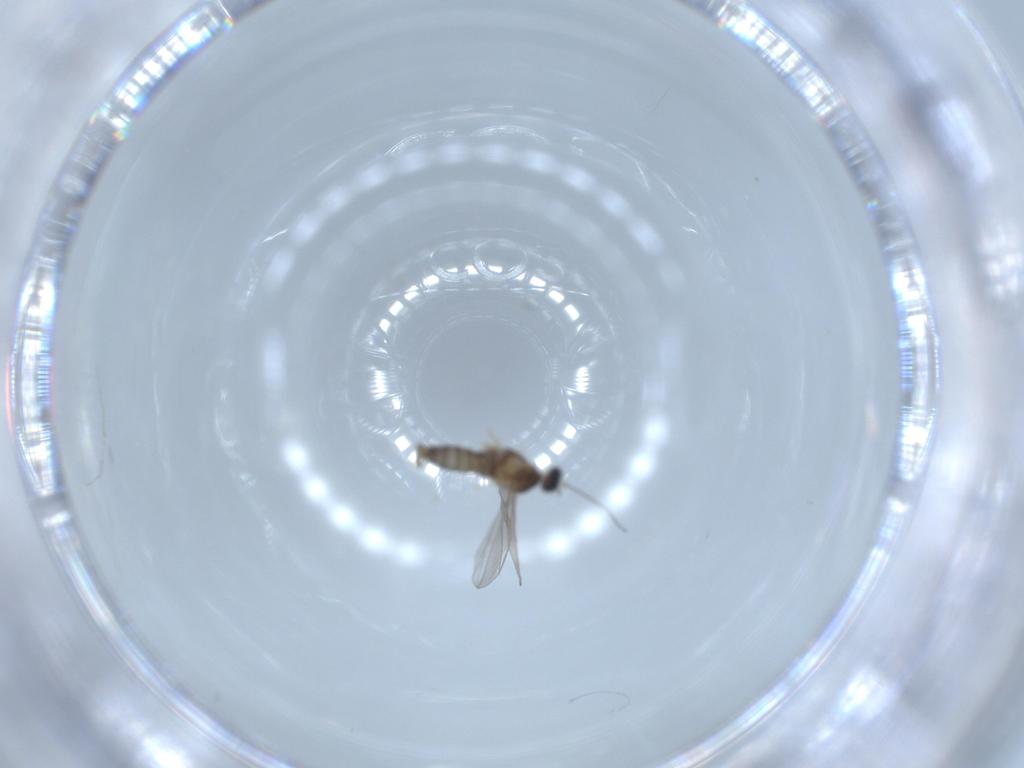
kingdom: Animalia
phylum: Arthropoda
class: Insecta
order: Diptera
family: Cecidomyiidae
